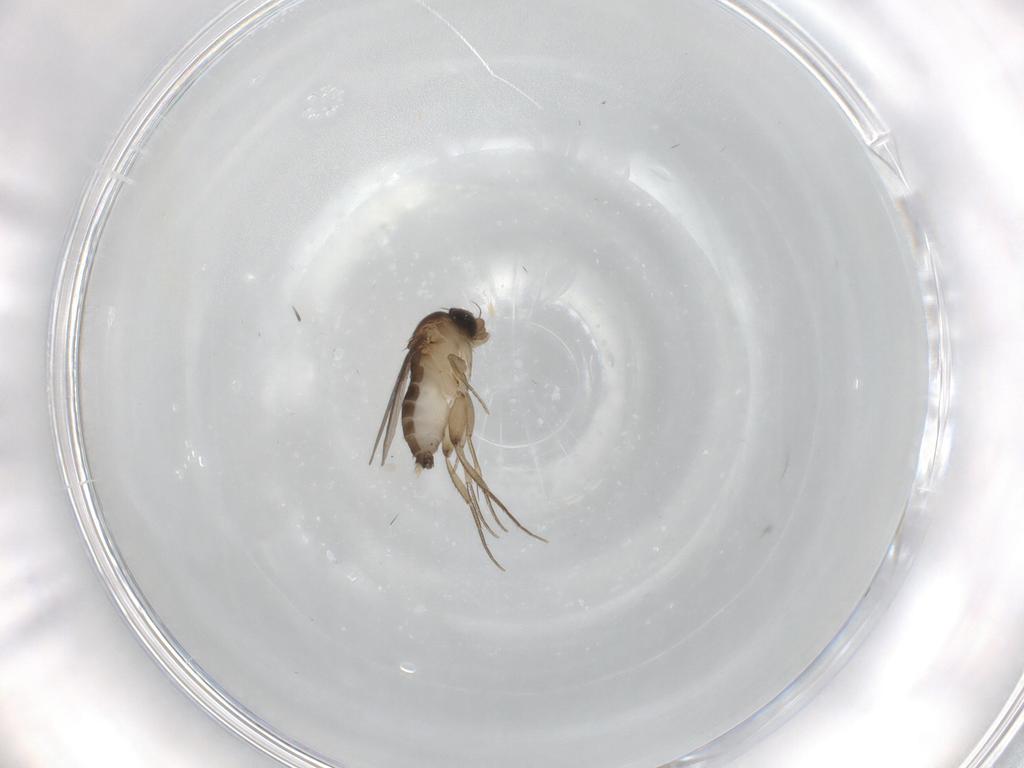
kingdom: Animalia
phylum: Arthropoda
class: Insecta
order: Diptera
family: Phoridae
